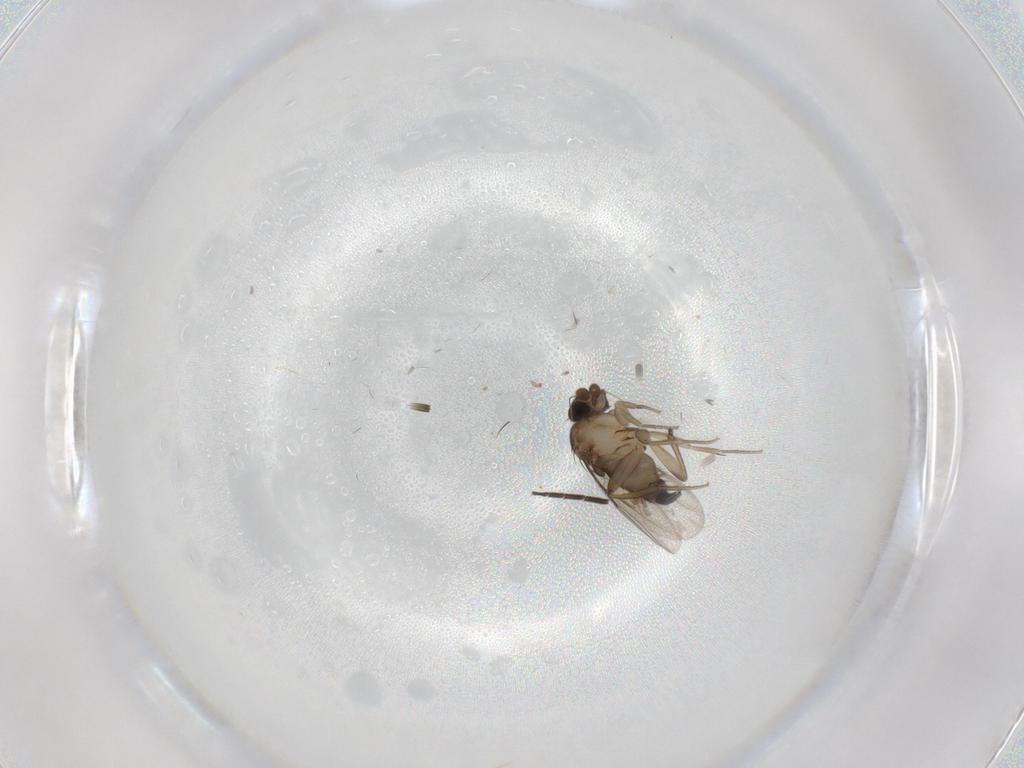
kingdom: Animalia
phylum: Arthropoda
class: Insecta
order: Diptera
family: Sciaridae
